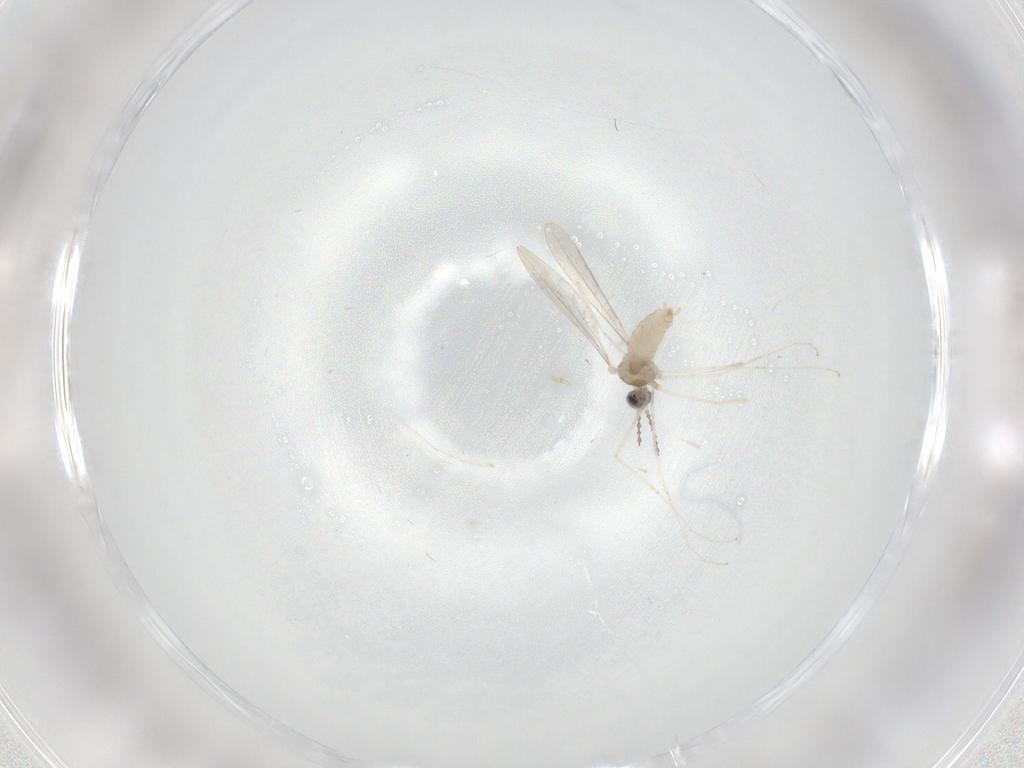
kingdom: Animalia
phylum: Arthropoda
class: Insecta
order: Diptera
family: Cecidomyiidae
